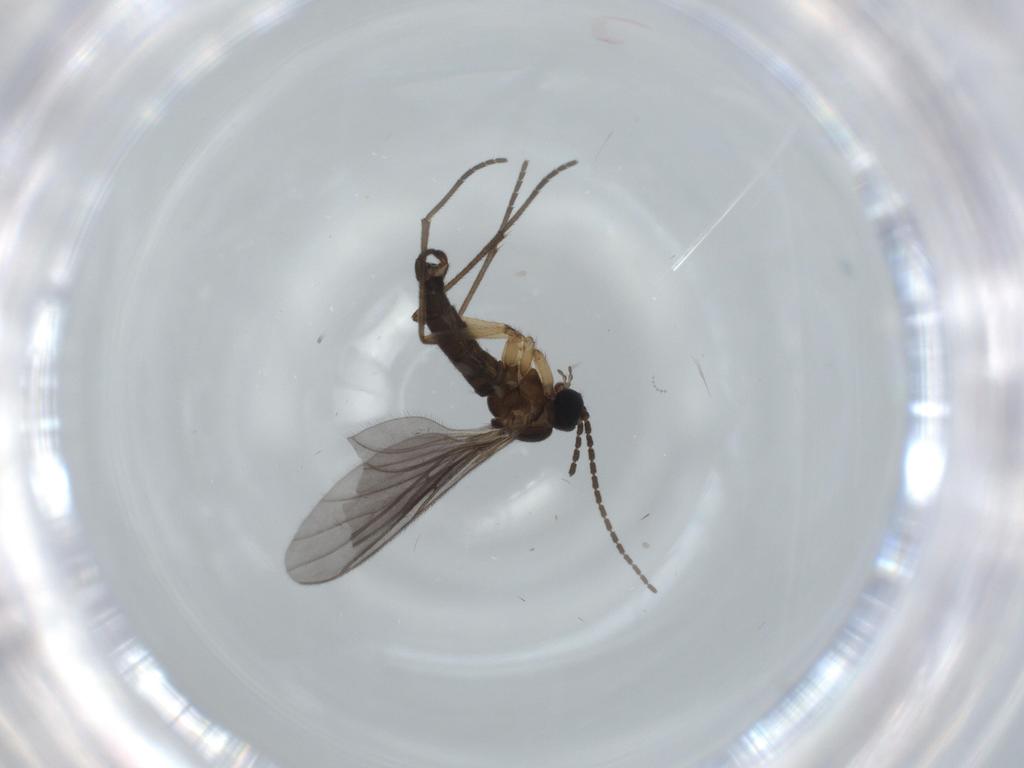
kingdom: Animalia
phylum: Arthropoda
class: Insecta
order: Diptera
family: Sciaridae
